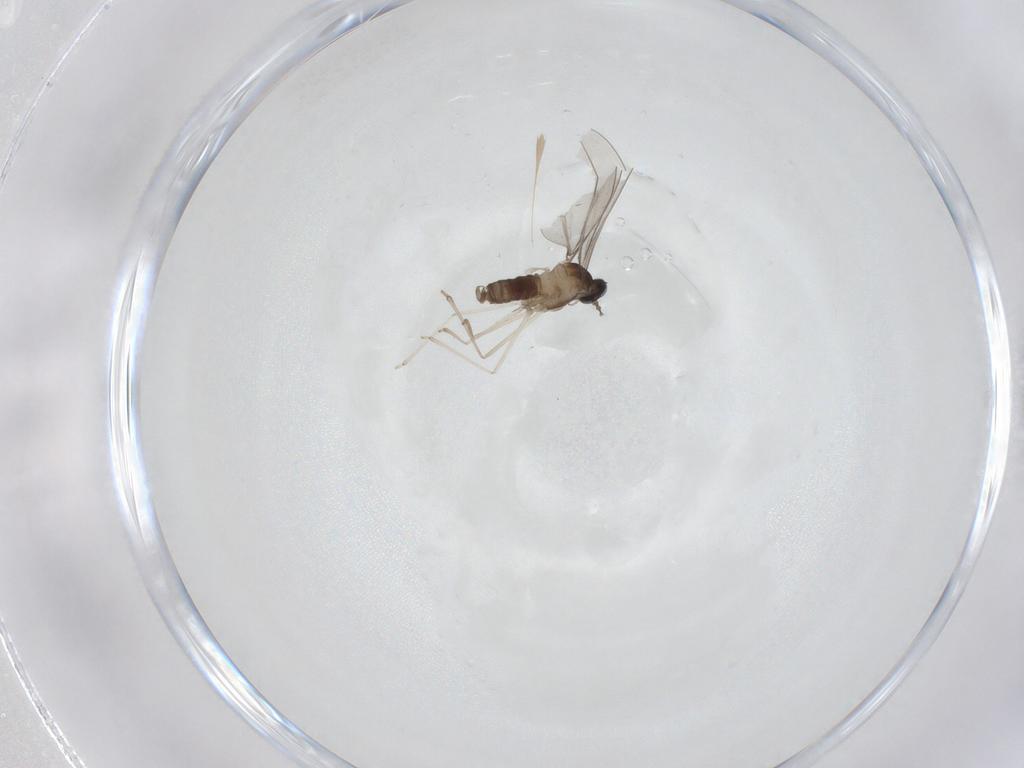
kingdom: Animalia
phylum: Arthropoda
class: Insecta
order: Diptera
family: Cecidomyiidae
